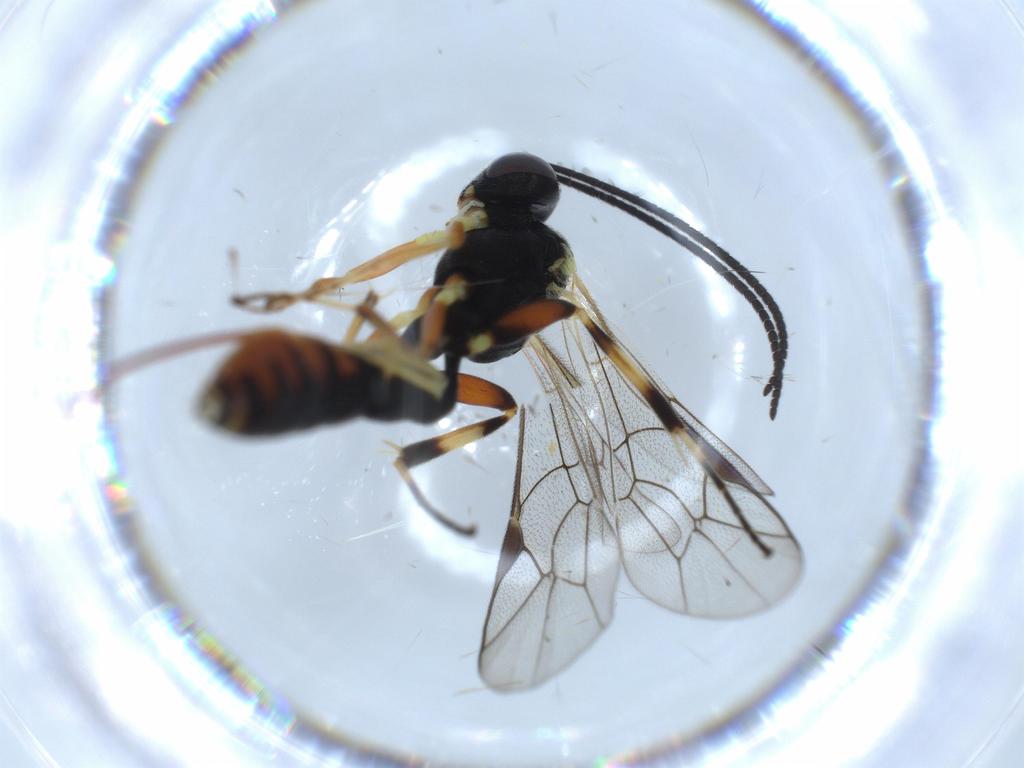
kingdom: Animalia
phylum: Arthropoda
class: Insecta
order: Hymenoptera
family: Ichneumonidae
